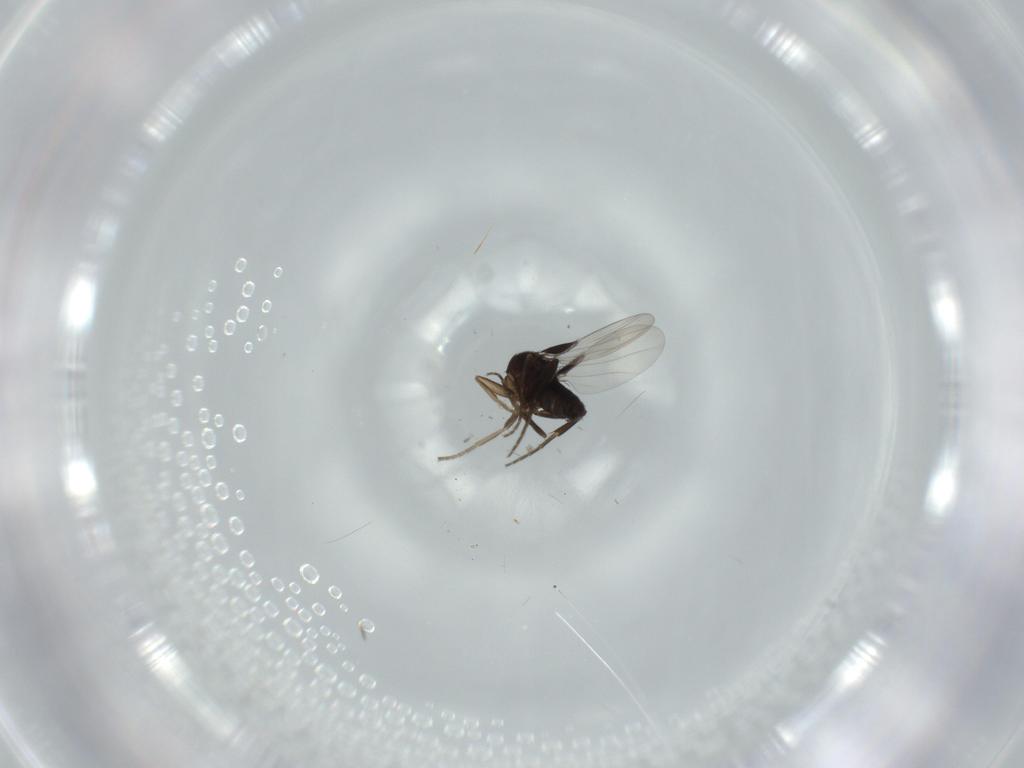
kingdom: Animalia
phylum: Arthropoda
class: Insecta
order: Diptera
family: Phoridae
